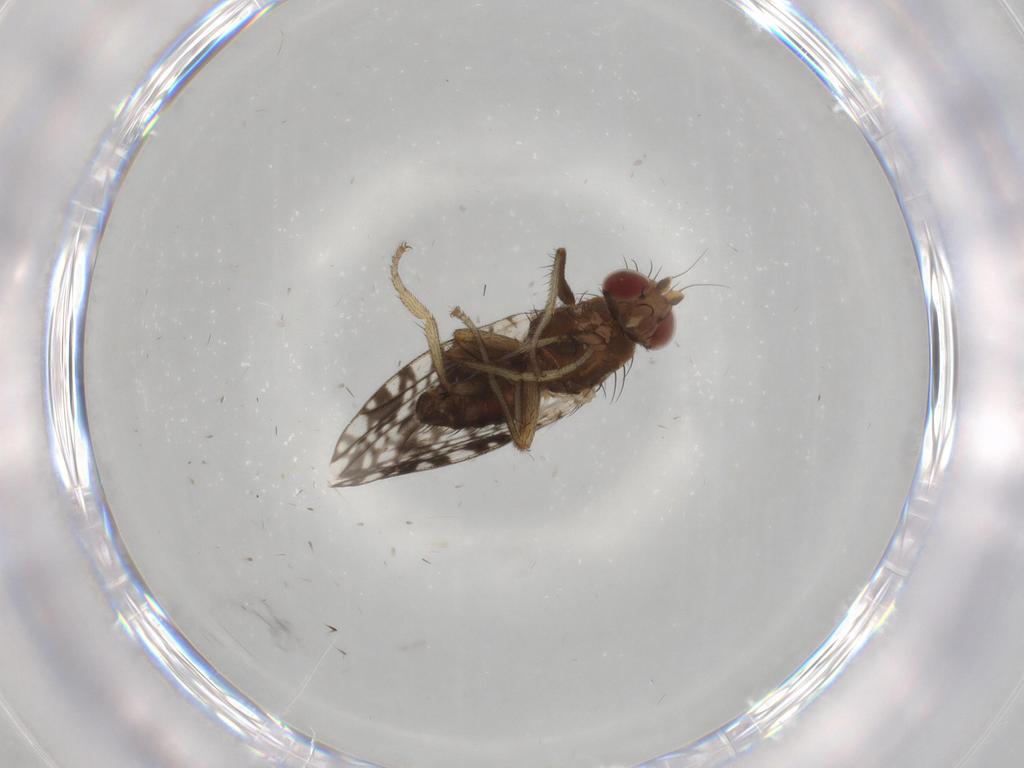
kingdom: Animalia
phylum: Arthropoda
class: Insecta
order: Diptera
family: Tephritidae
